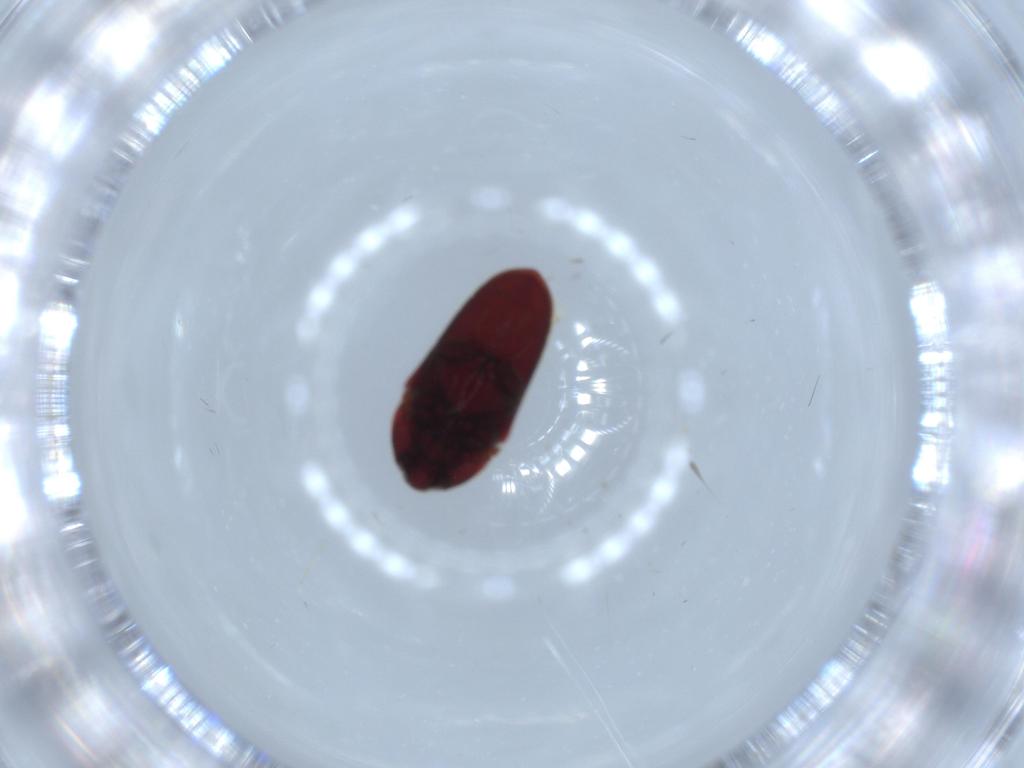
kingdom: Animalia
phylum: Arthropoda
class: Insecta
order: Coleoptera
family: Throscidae
